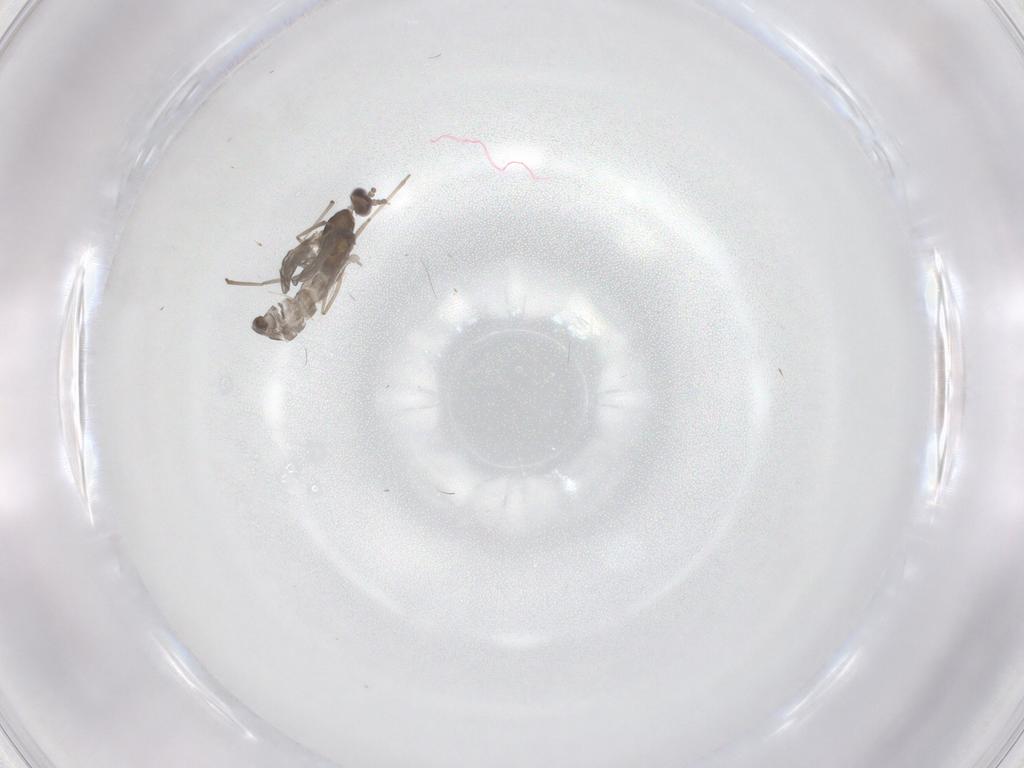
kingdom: Animalia
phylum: Arthropoda
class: Insecta
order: Diptera
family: Cecidomyiidae
